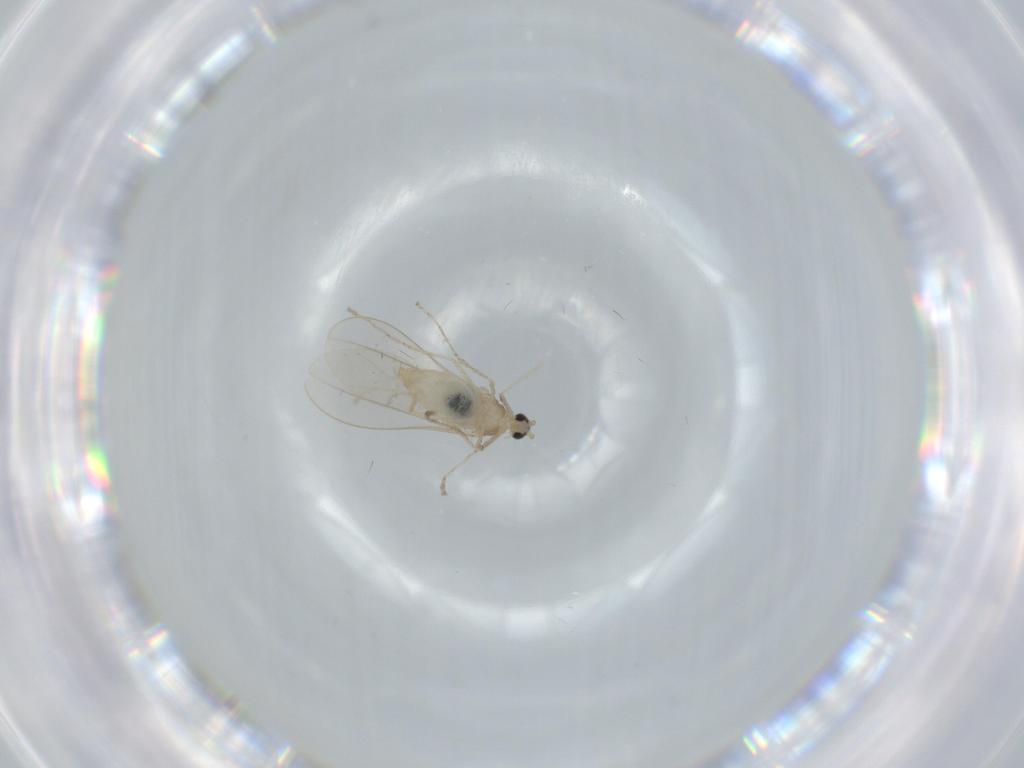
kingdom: Animalia
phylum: Arthropoda
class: Insecta
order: Diptera
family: Cecidomyiidae
